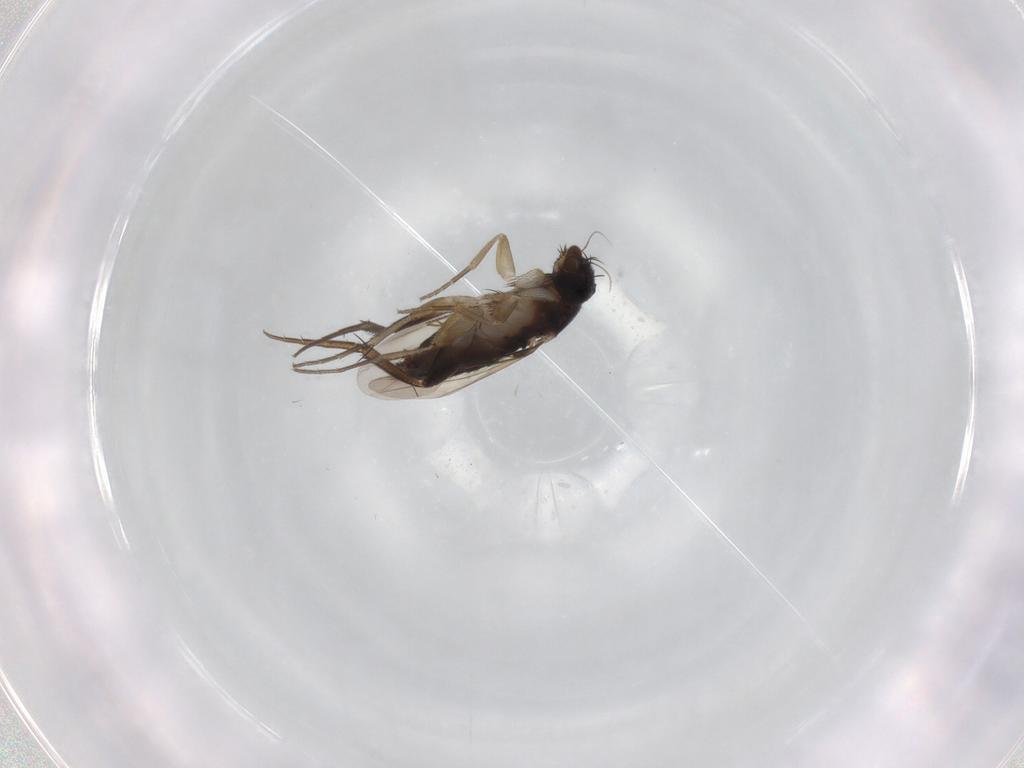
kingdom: Animalia
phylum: Arthropoda
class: Insecta
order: Diptera
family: Phoridae
